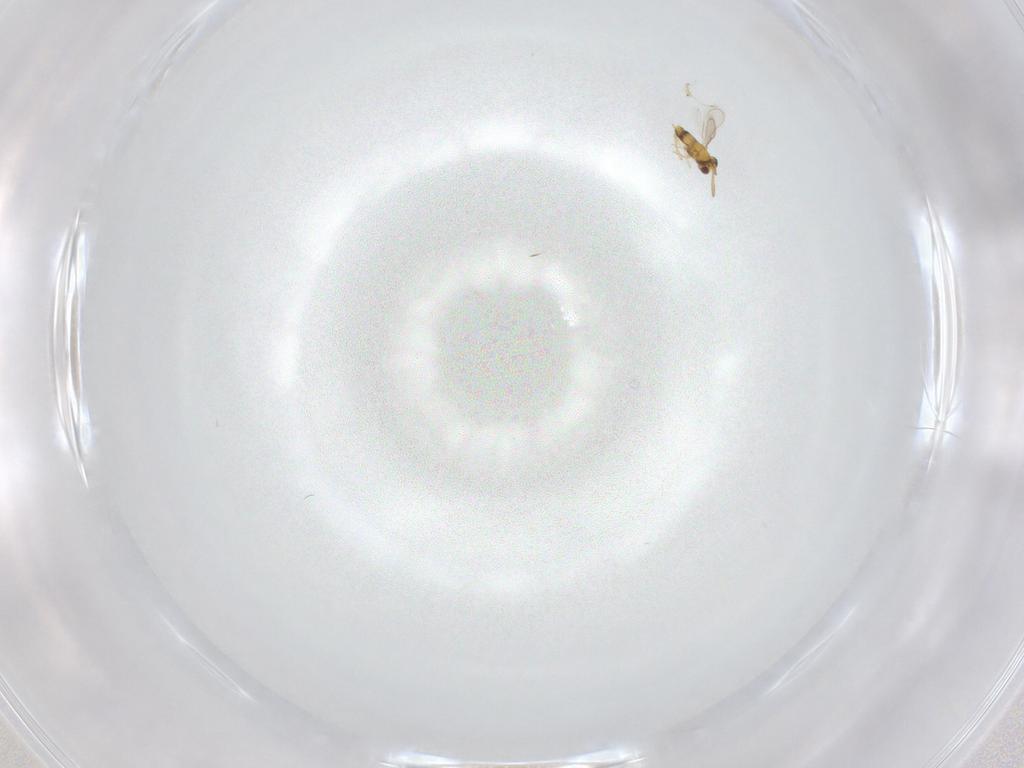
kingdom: Animalia
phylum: Arthropoda
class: Insecta
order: Hymenoptera
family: Aphelinidae
